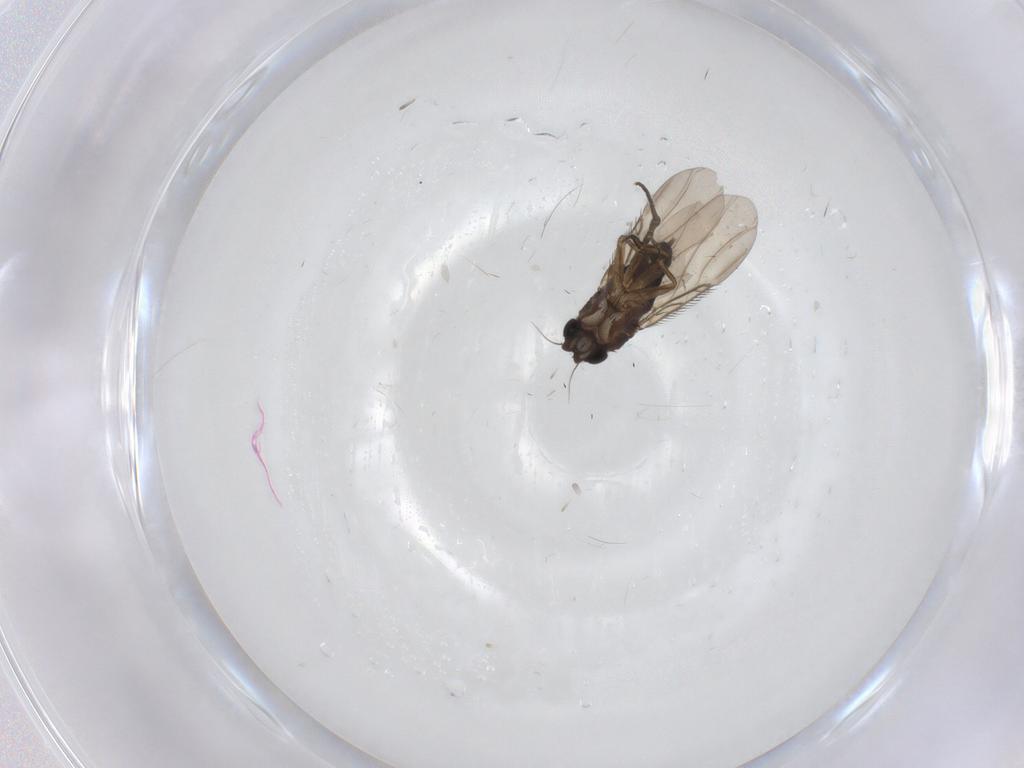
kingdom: Animalia
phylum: Arthropoda
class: Insecta
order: Diptera
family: Phoridae
